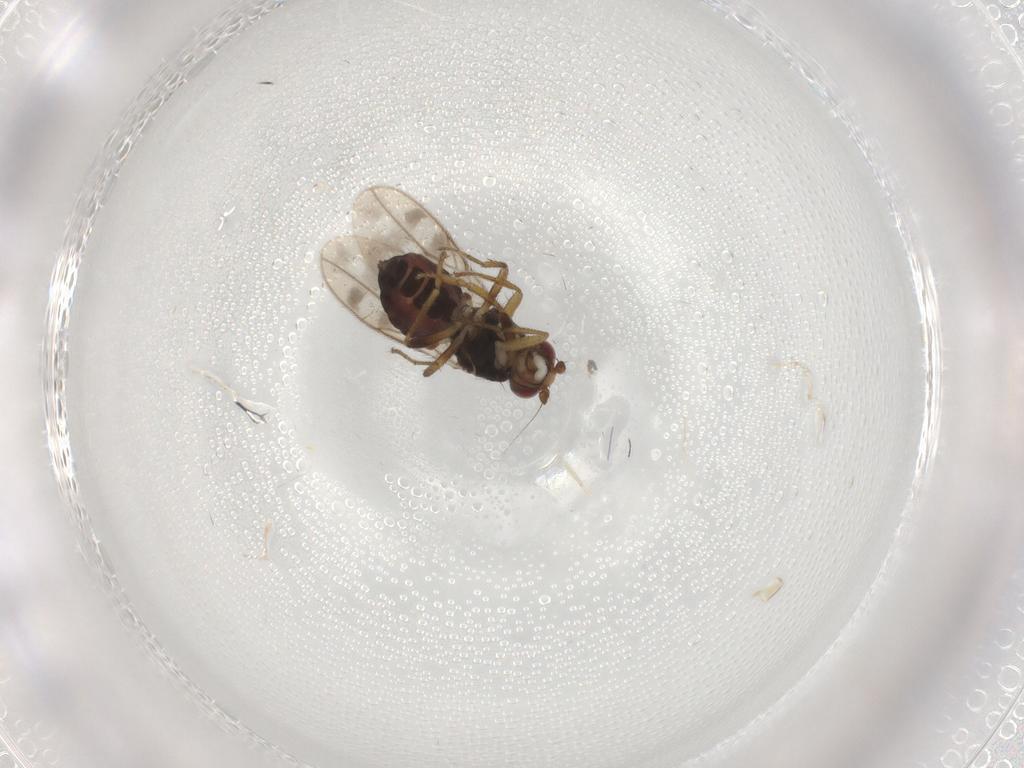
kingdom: Animalia
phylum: Arthropoda
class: Insecta
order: Diptera
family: Sphaeroceridae
